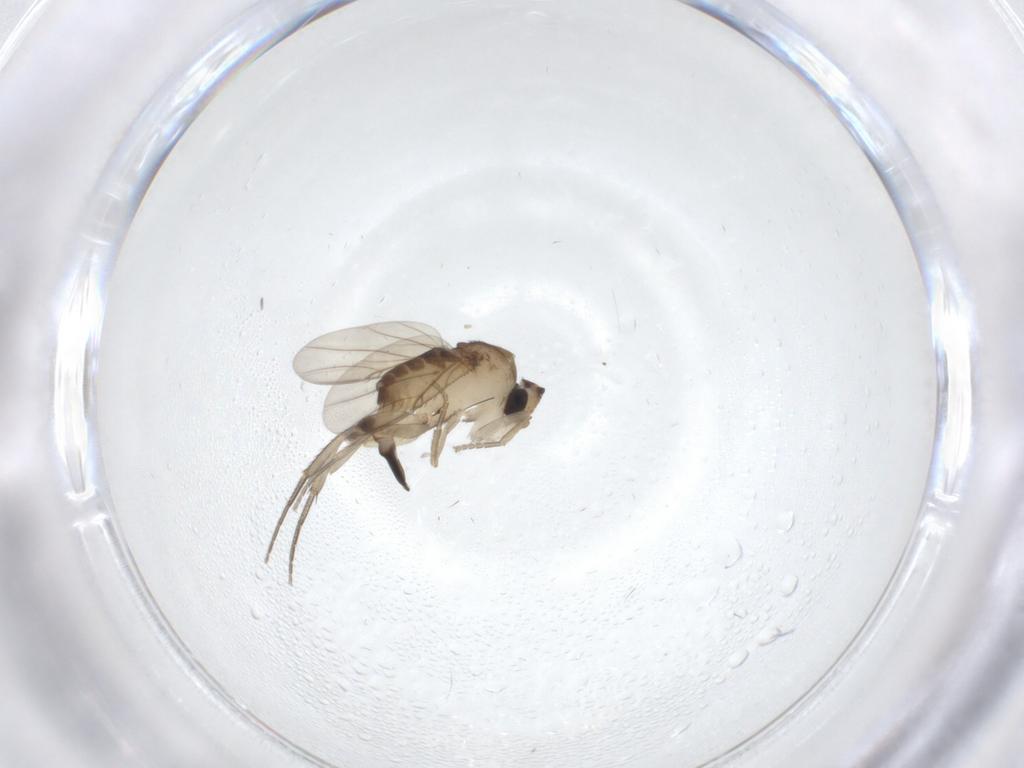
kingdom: Animalia
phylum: Arthropoda
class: Insecta
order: Diptera
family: Phoridae
